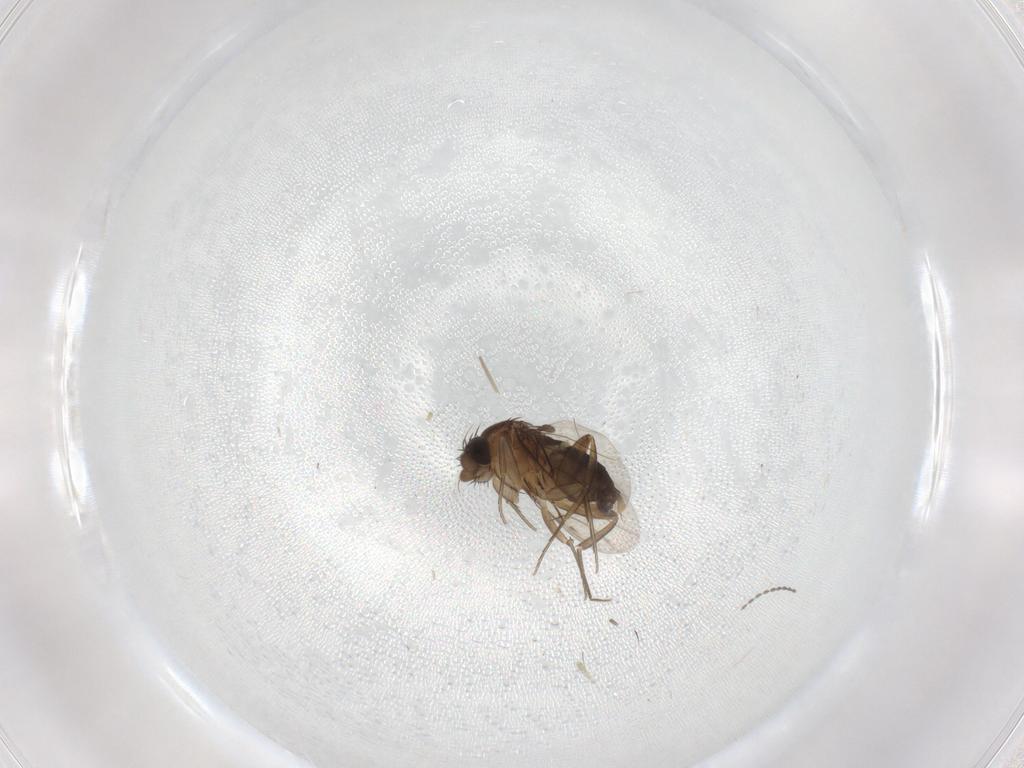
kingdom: Animalia
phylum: Arthropoda
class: Insecta
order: Diptera
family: Phoridae
